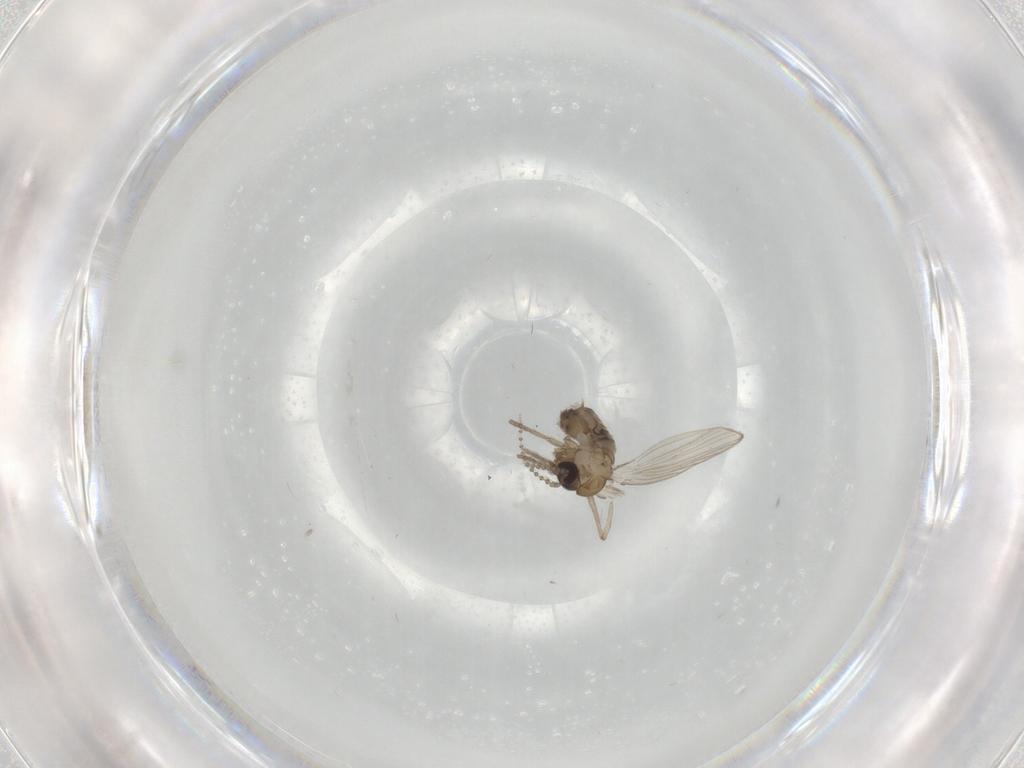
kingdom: Animalia
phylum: Arthropoda
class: Insecta
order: Diptera
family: Psychodidae
